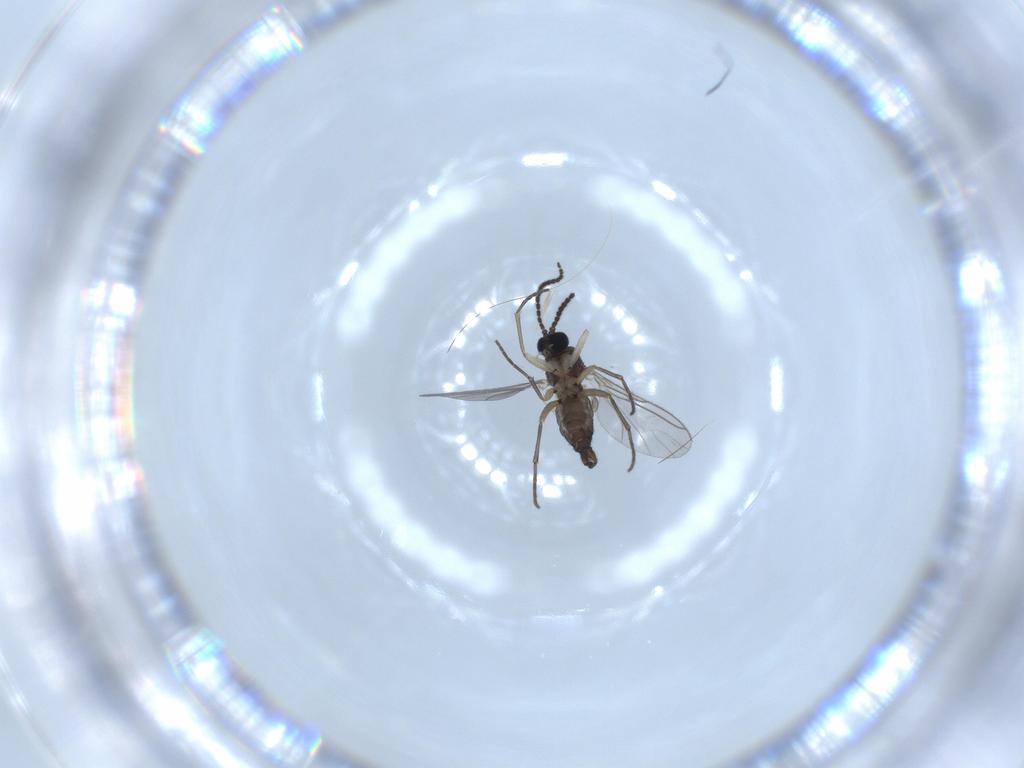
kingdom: Animalia
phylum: Arthropoda
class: Insecta
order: Diptera
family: Sciaridae
